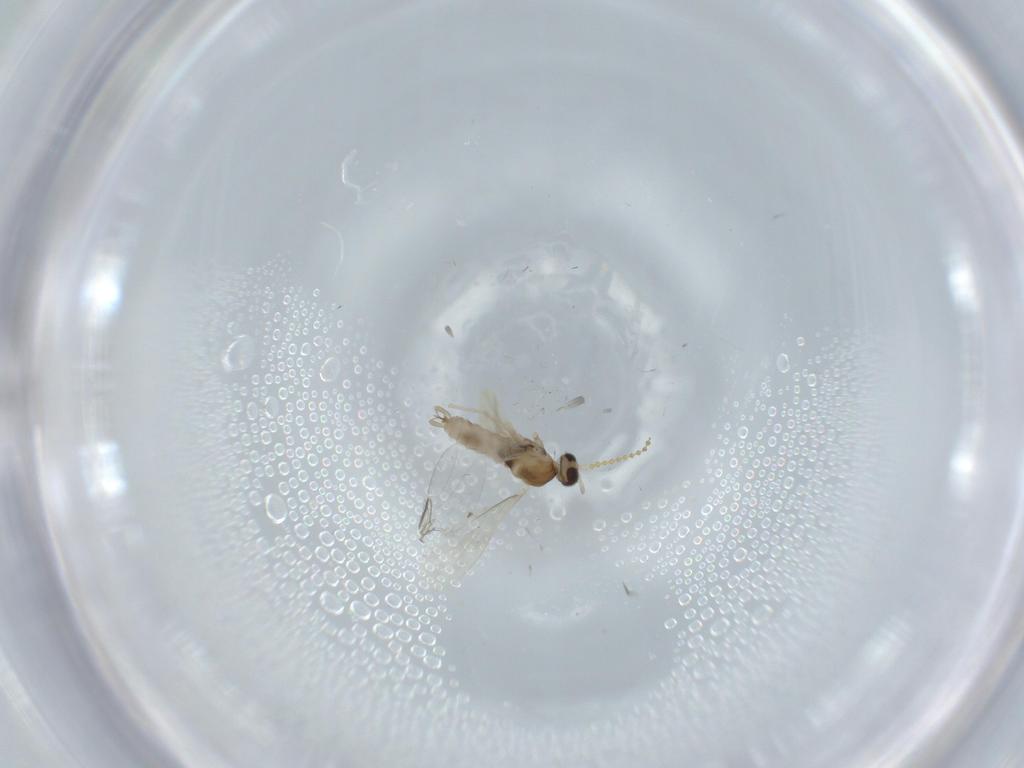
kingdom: Animalia
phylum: Arthropoda
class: Insecta
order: Diptera
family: Cecidomyiidae
